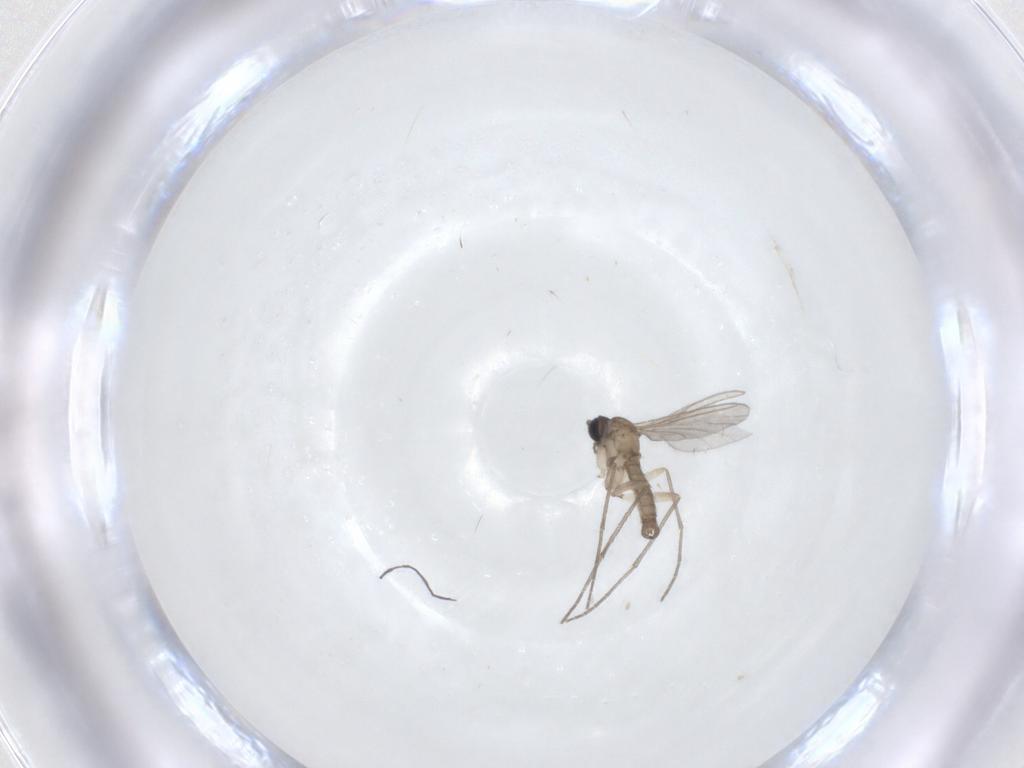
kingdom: Animalia
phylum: Arthropoda
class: Insecta
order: Diptera
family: Sciaridae
